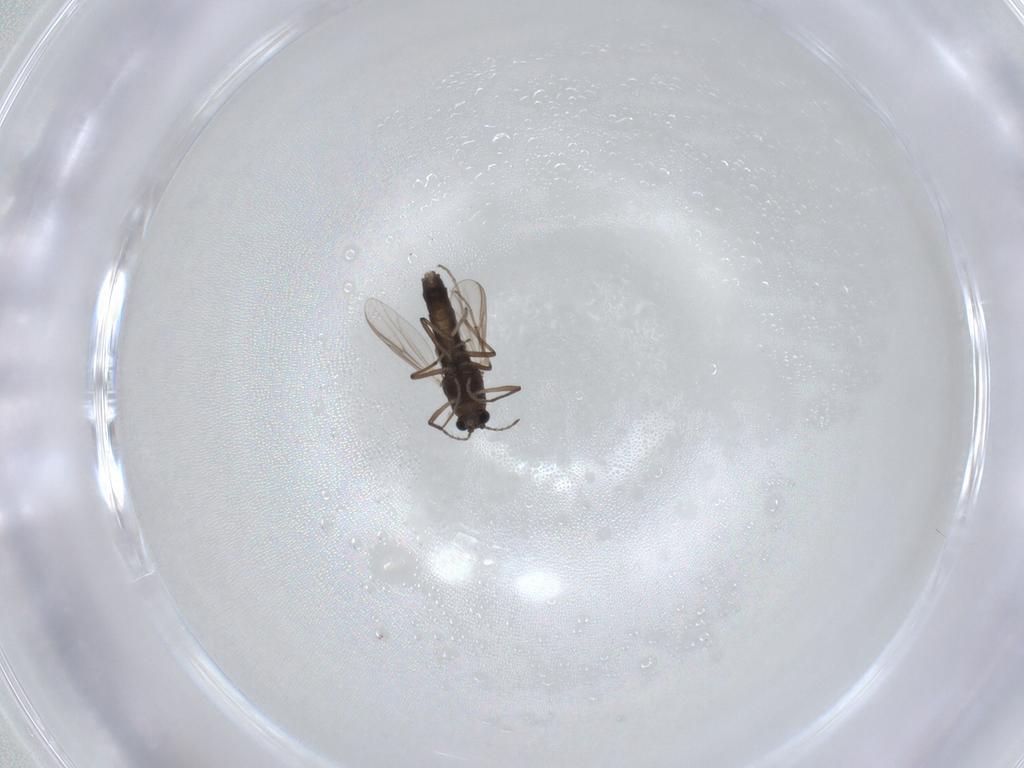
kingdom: Animalia
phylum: Arthropoda
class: Insecta
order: Diptera
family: Chironomidae
